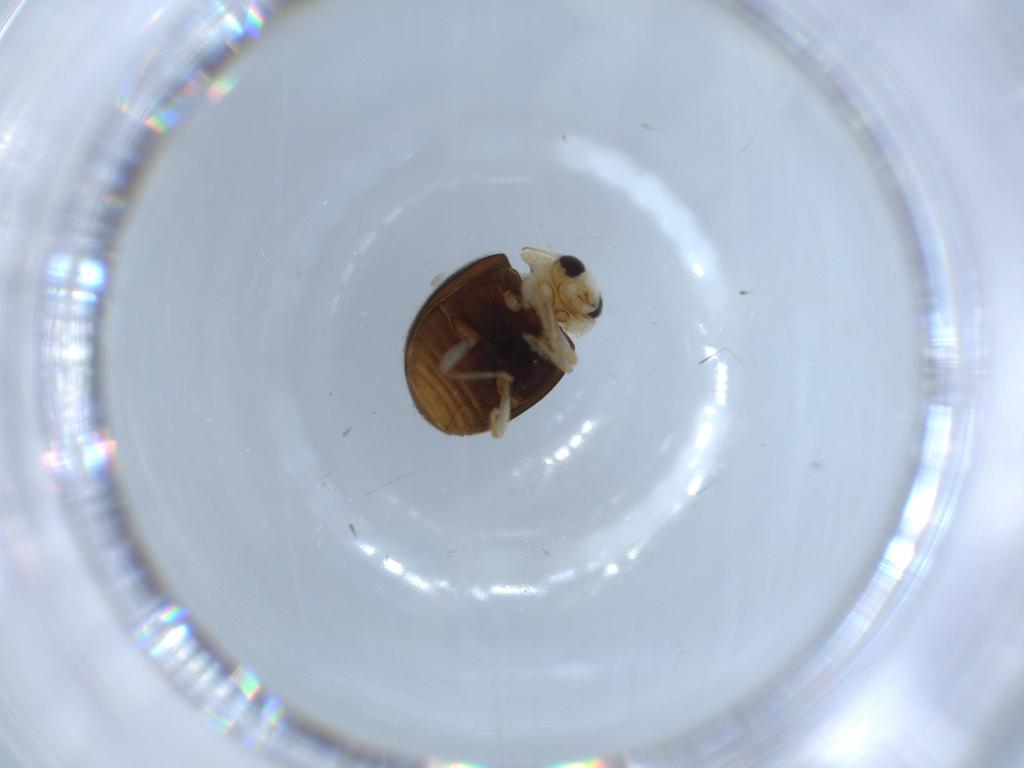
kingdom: Animalia
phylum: Arthropoda
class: Insecta
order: Coleoptera
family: Coccinellidae
